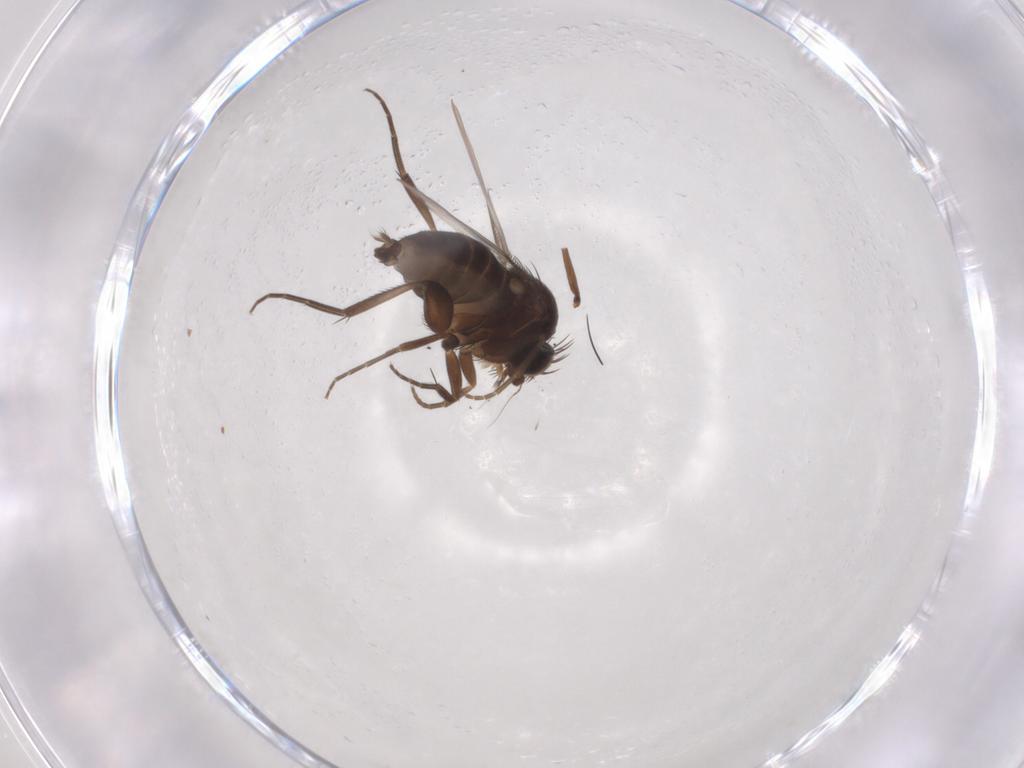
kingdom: Animalia
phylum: Arthropoda
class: Insecta
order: Diptera
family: Phoridae
